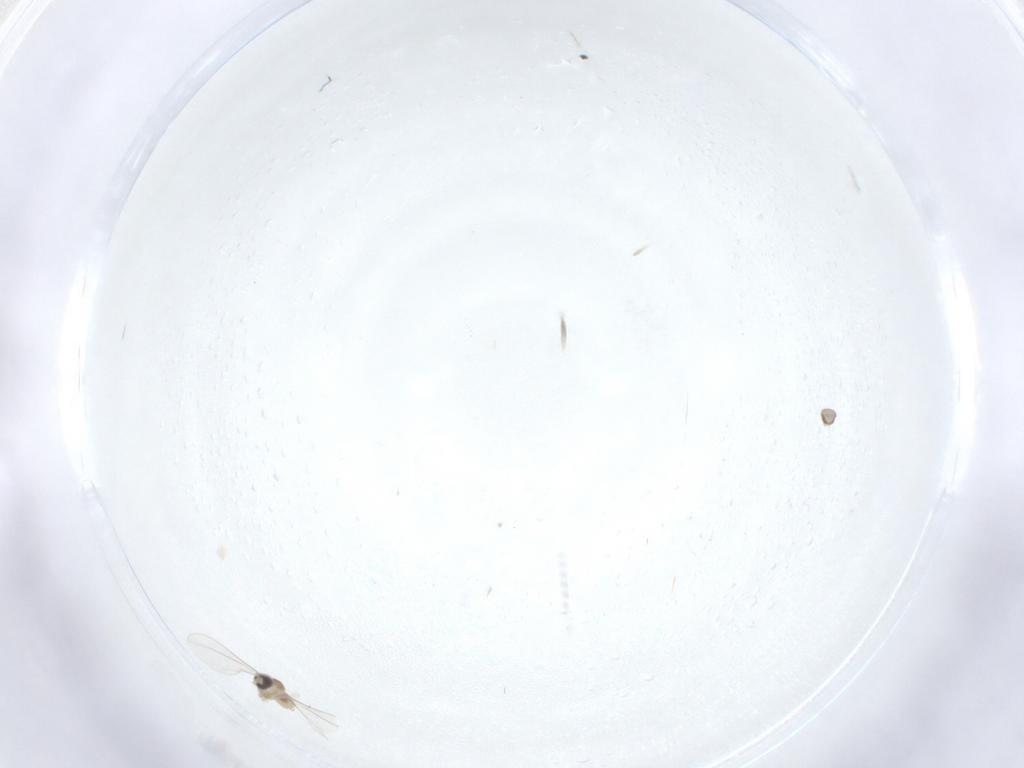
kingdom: Animalia
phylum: Arthropoda
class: Insecta
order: Diptera
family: Cecidomyiidae
